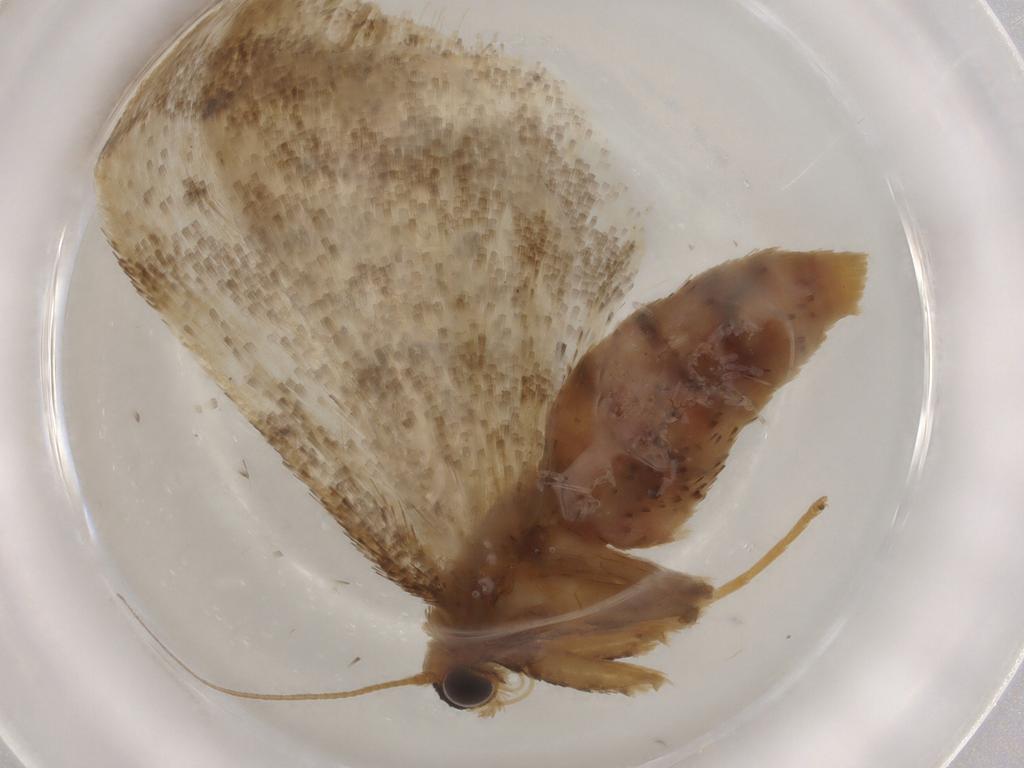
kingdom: Animalia
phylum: Arthropoda
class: Insecta
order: Lepidoptera
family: Geometridae
